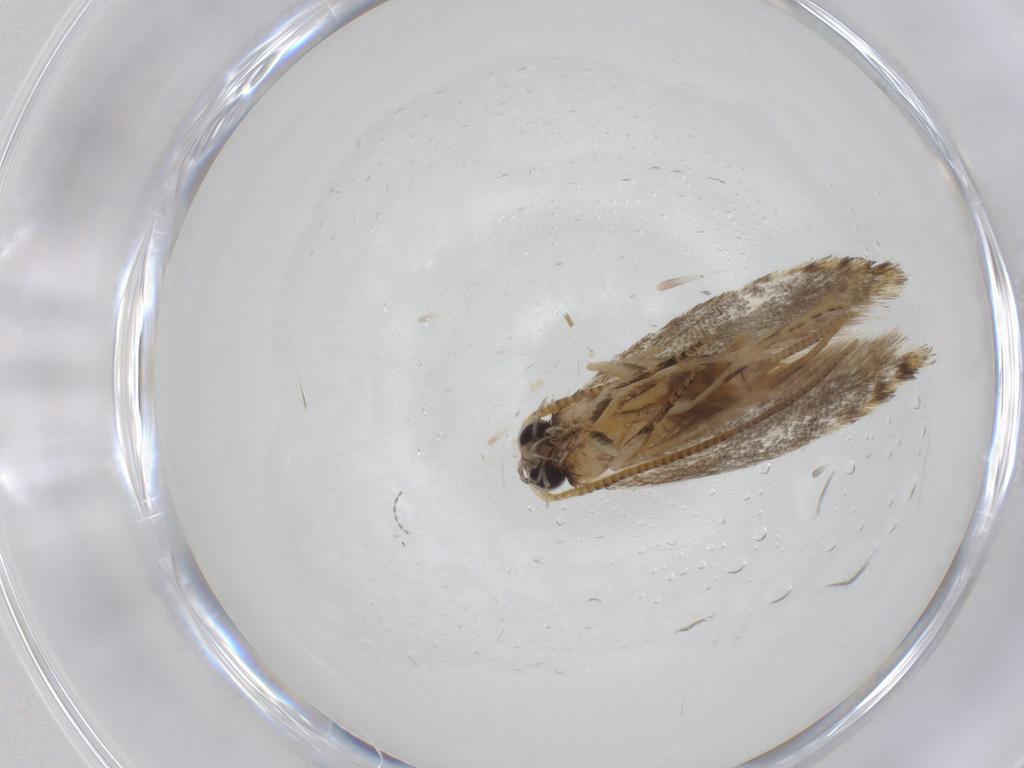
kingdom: Animalia
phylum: Arthropoda
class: Insecta
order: Lepidoptera
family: Tineidae
